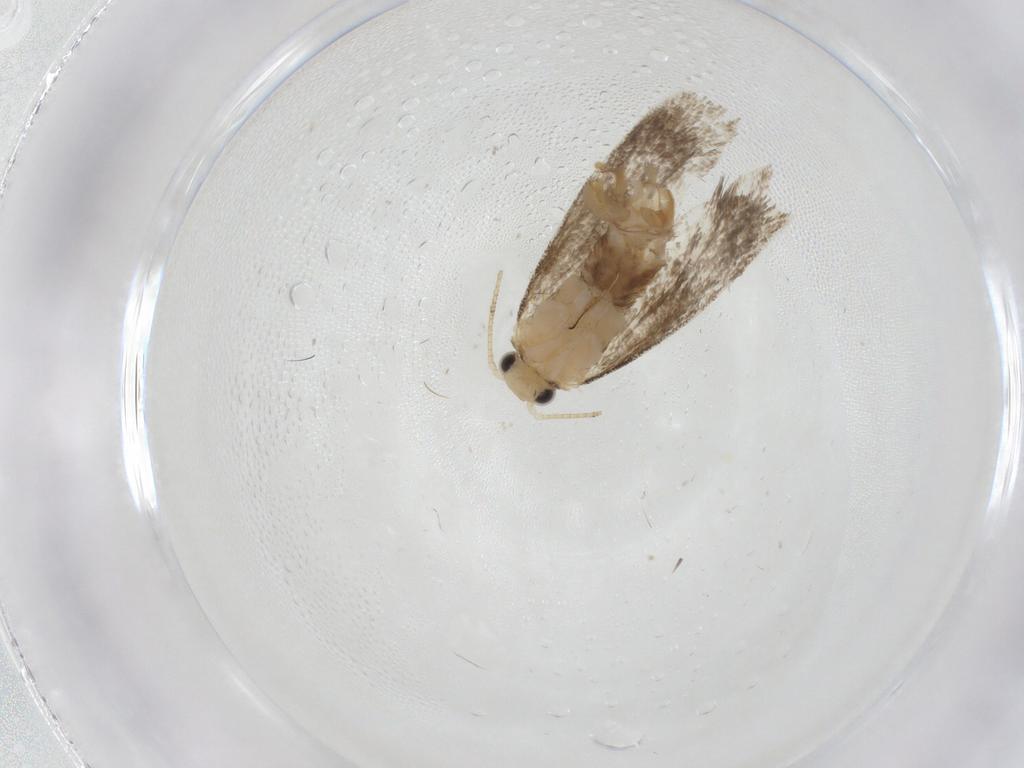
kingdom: Animalia
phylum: Arthropoda
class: Insecta
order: Lepidoptera
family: Dryadaulidae
